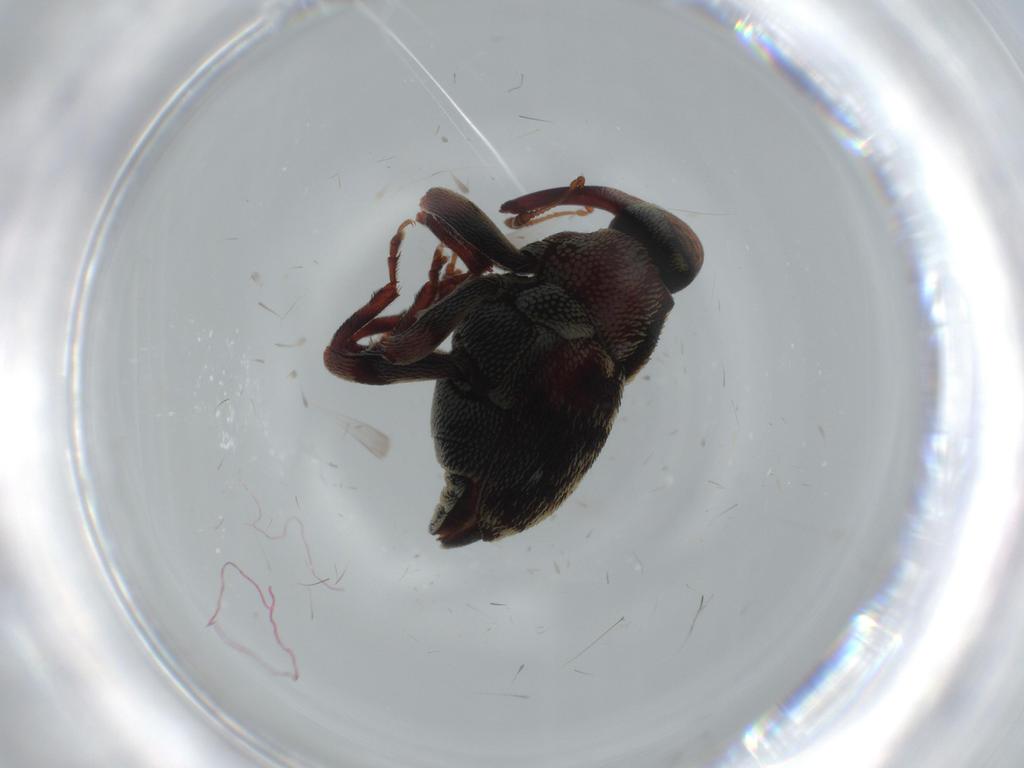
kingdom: Animalia
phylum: Arthropoda
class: Insecta
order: Coleoptera
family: Curculionidae
